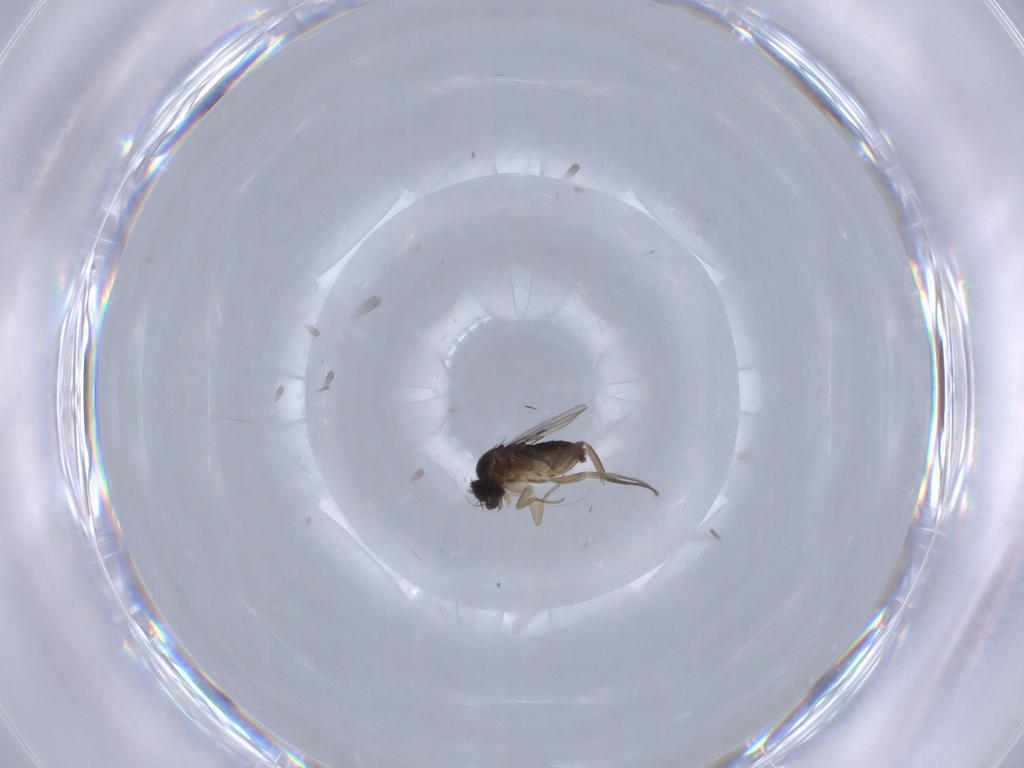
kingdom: Animalia
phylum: Arthropoda
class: Insecta
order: Diptera
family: Phoridae
